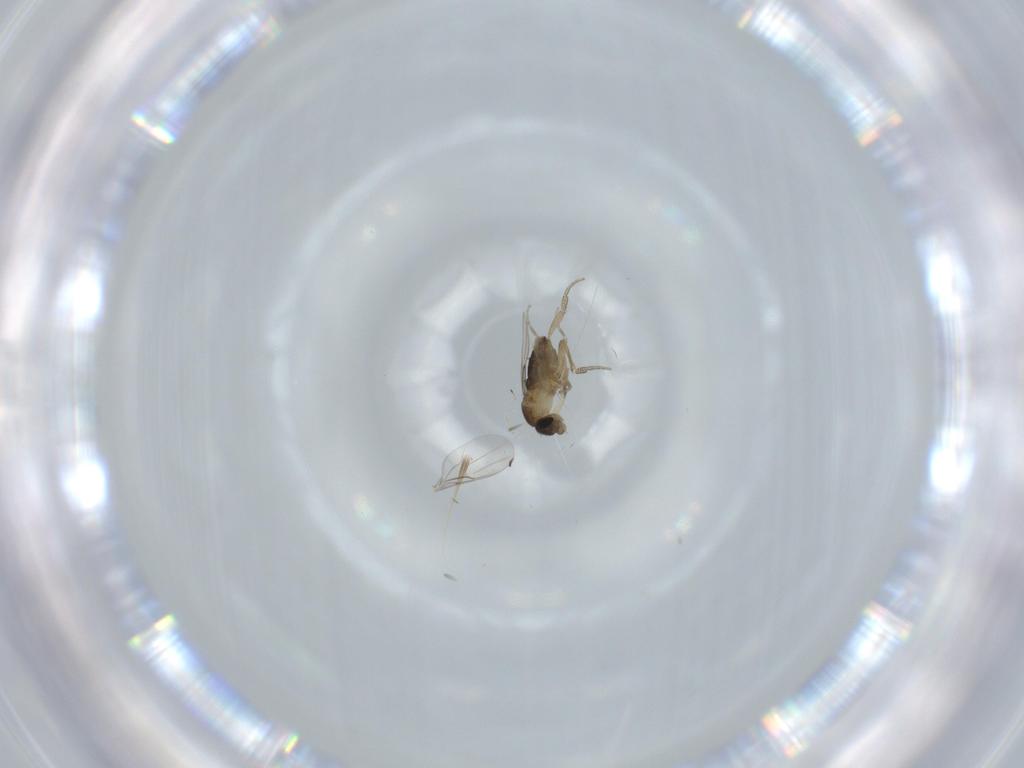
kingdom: Animalia
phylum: Arthropoda
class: Insecta
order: Diptera
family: Phoridae
